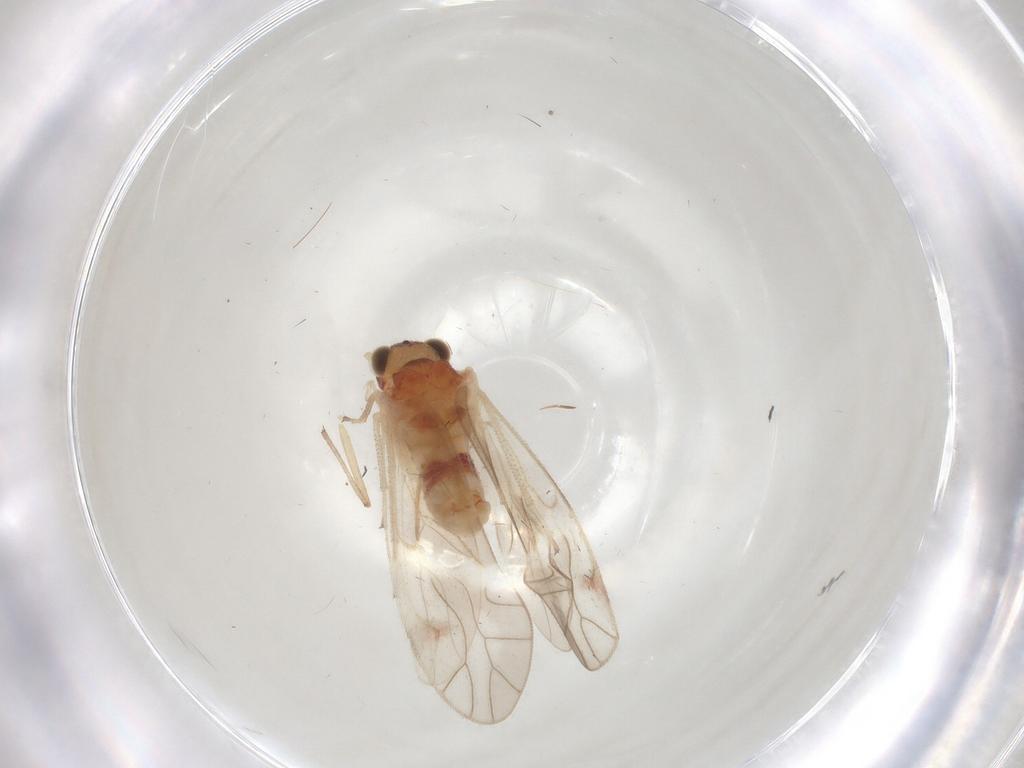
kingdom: Animalia
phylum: Arthropoda
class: Insecta
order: Psocodea
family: Caeciliusidae
